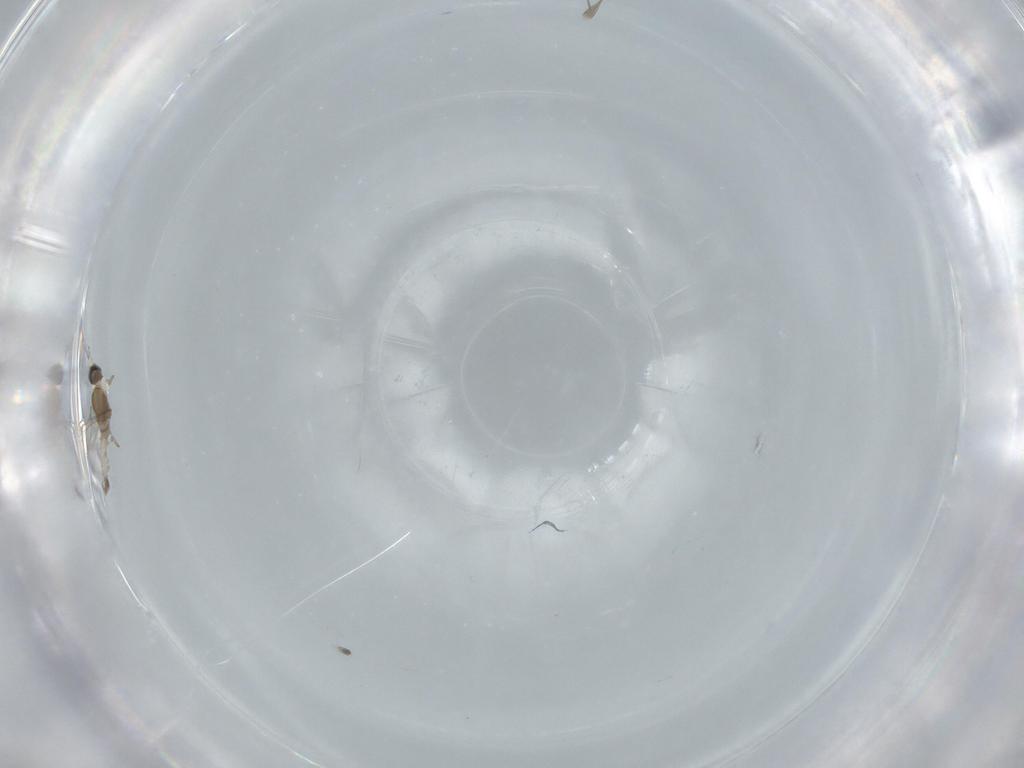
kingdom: Animalia
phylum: Arthropoda
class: Insecta
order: Diptera
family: Cecidomyiidae
